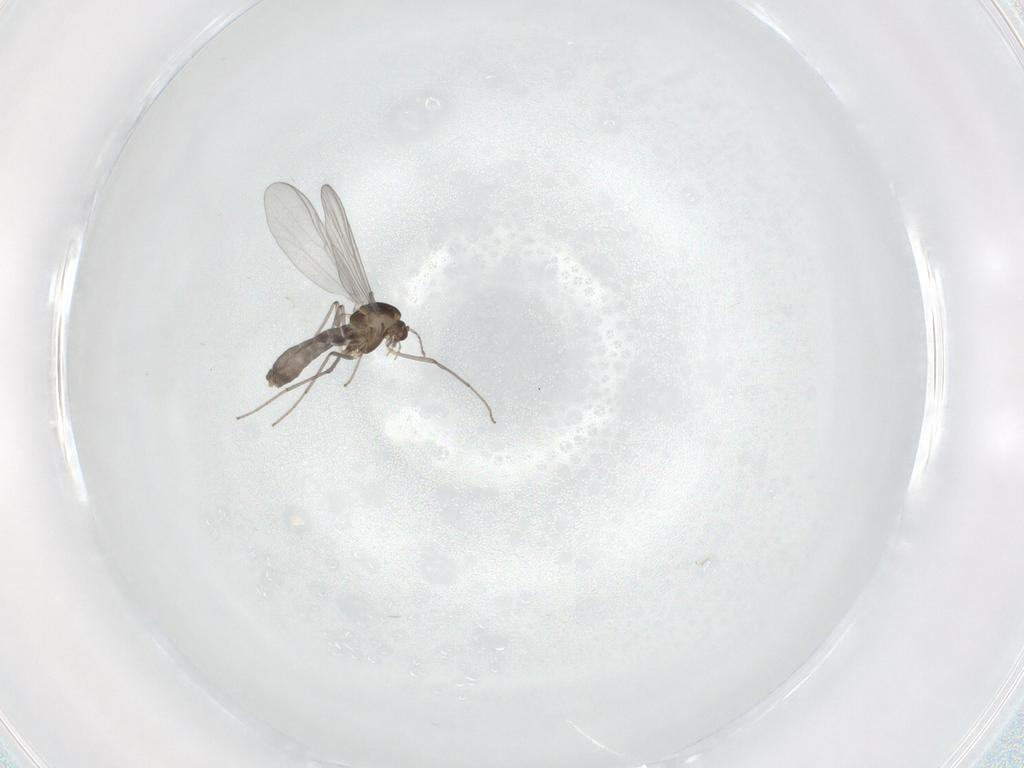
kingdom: Animalia
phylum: Arthropoda
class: Insecta
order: Diptera
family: Chironomidae
